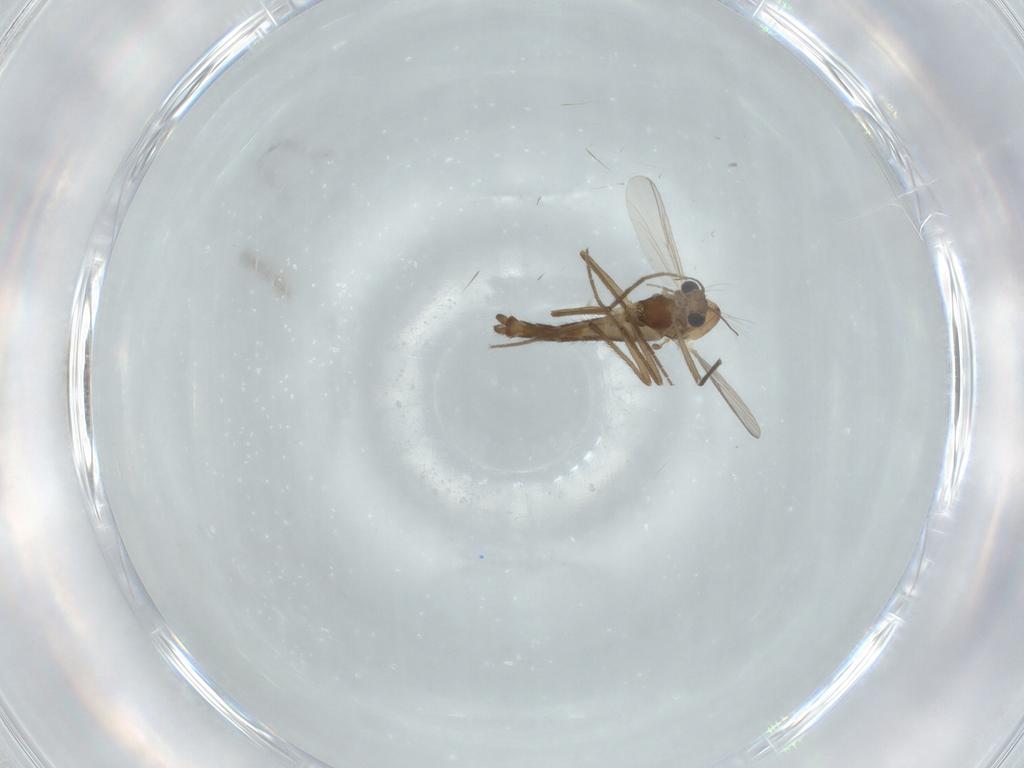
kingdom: Animalia
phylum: Arthropoda
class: Insecta
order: Diptera
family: Chironomidae
